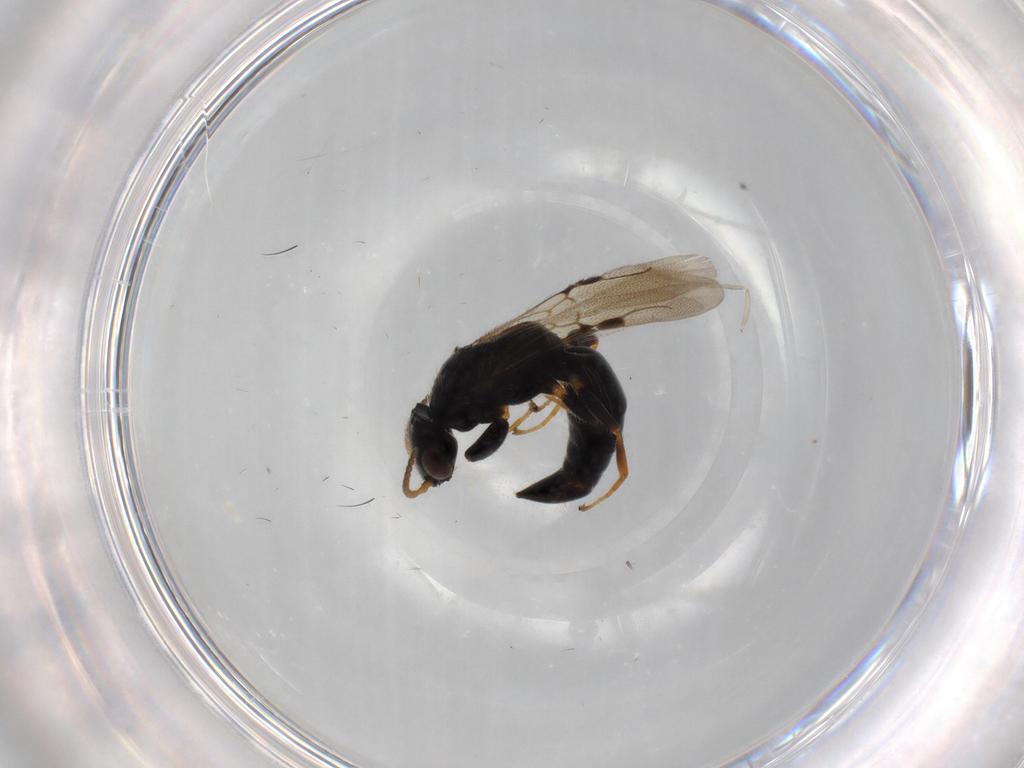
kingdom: Animalia
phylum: Arthropoda
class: Insecta
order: Hymenoptera
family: Bethylidae
